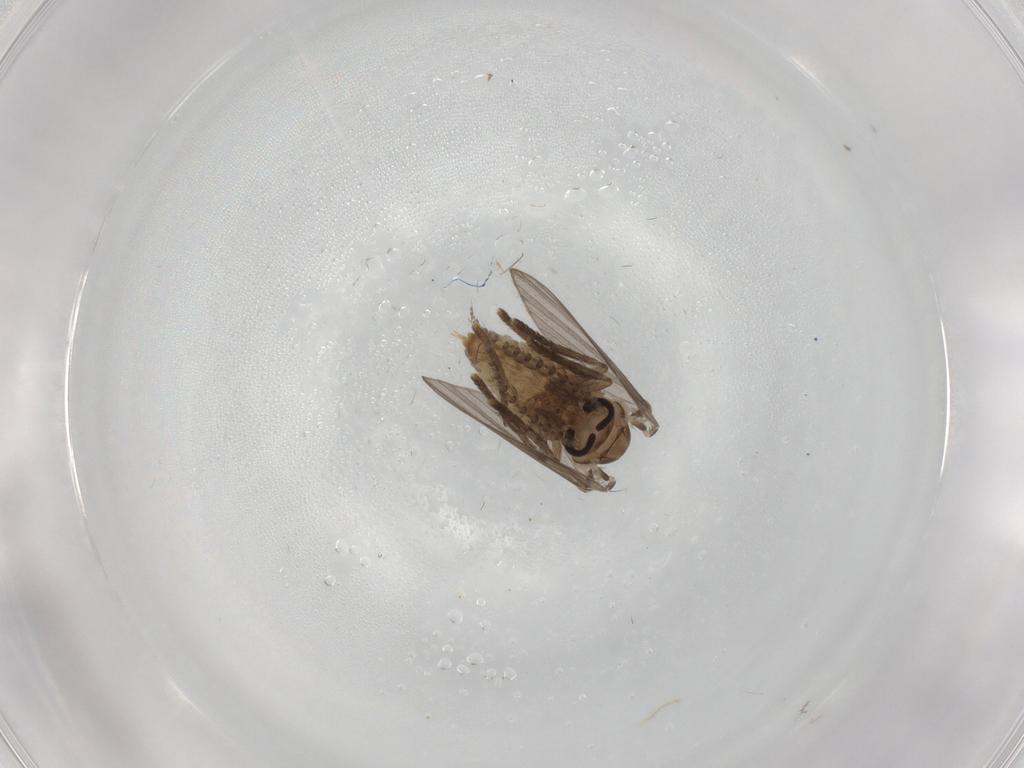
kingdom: Animalia
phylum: Arthropoda
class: Insecta
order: Diptera
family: Psychodidae
